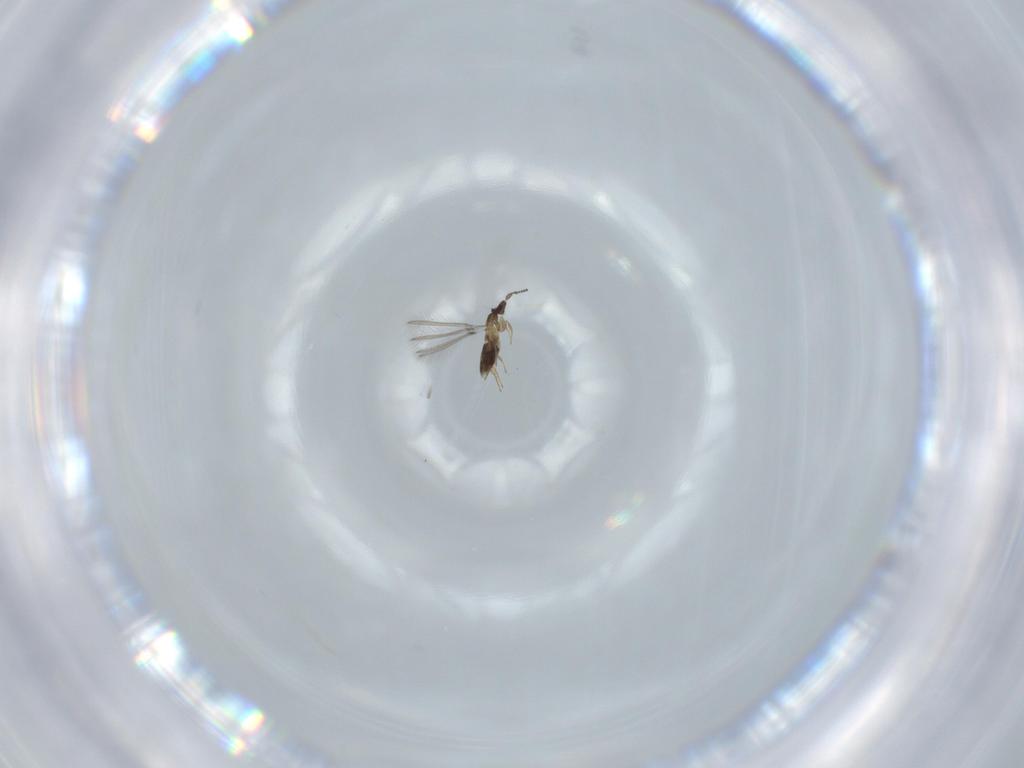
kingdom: Animalia
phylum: Arthropoda
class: Insecta
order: Hymenoptera
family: Mymaridae
